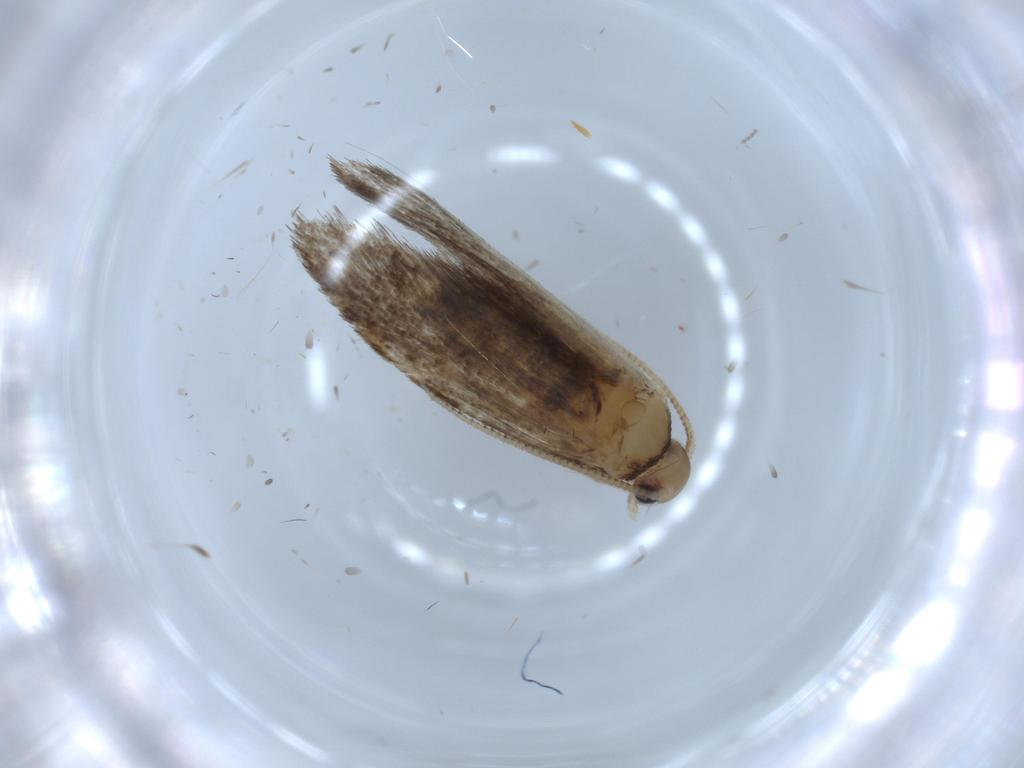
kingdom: Animalia
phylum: Arthropoda
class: Insecta
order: Lepidoptera
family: Tineidae
